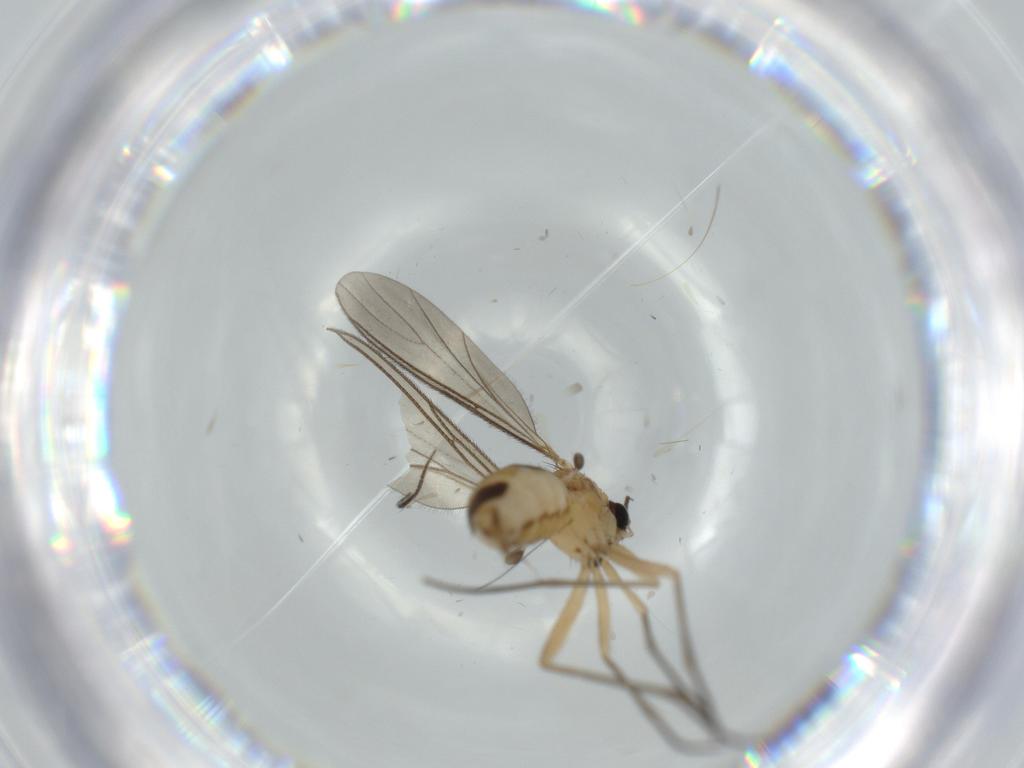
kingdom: Animalia
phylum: Arthropoda
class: Insecta
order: Diptera
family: Sciaridae
